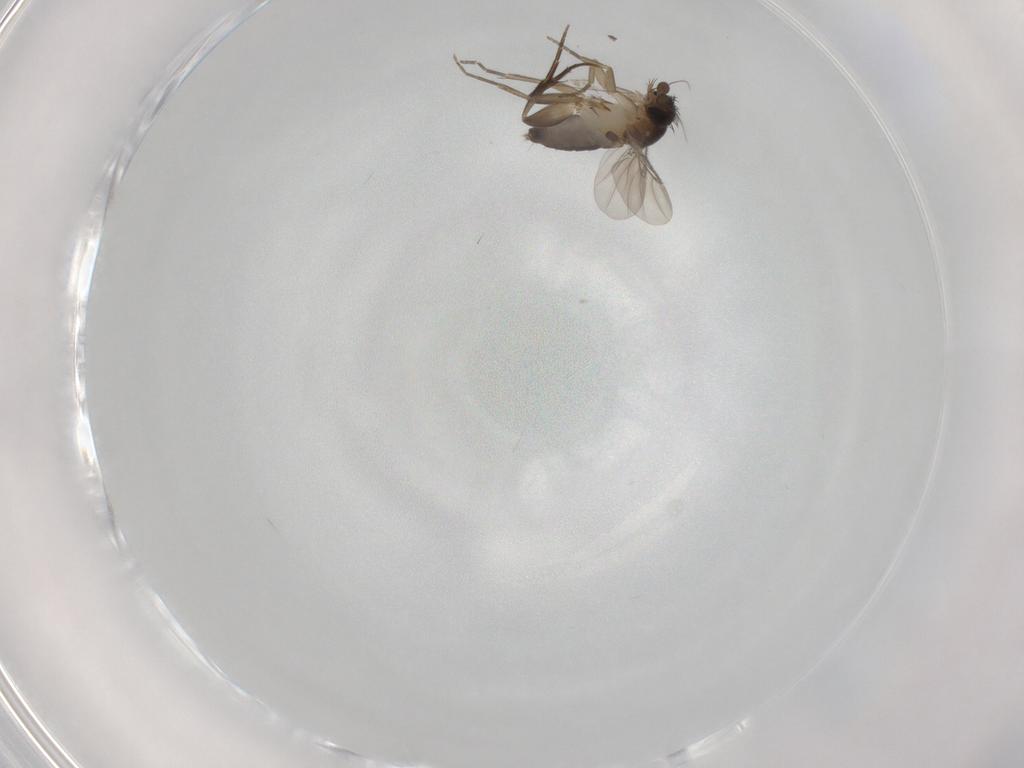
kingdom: Animalia
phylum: Arthropoda
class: Insecta
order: Diptera
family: Phoridae
